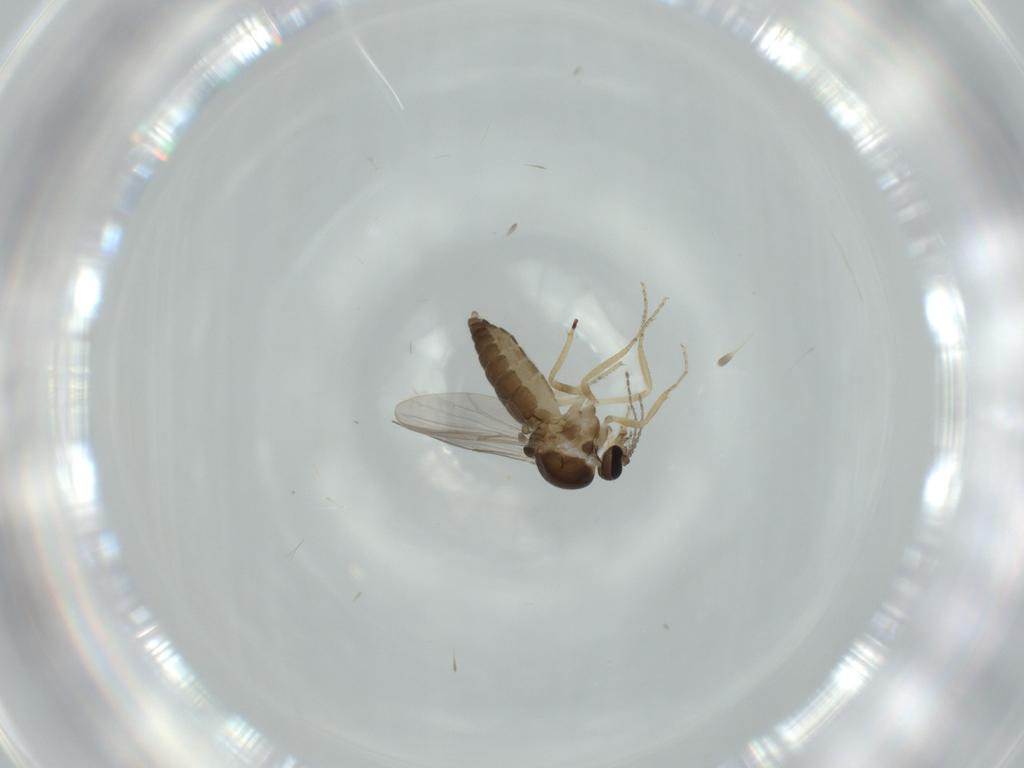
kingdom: Animalia
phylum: Arthropoda
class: Insecta
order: Diptera
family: Ceratopogonidae
